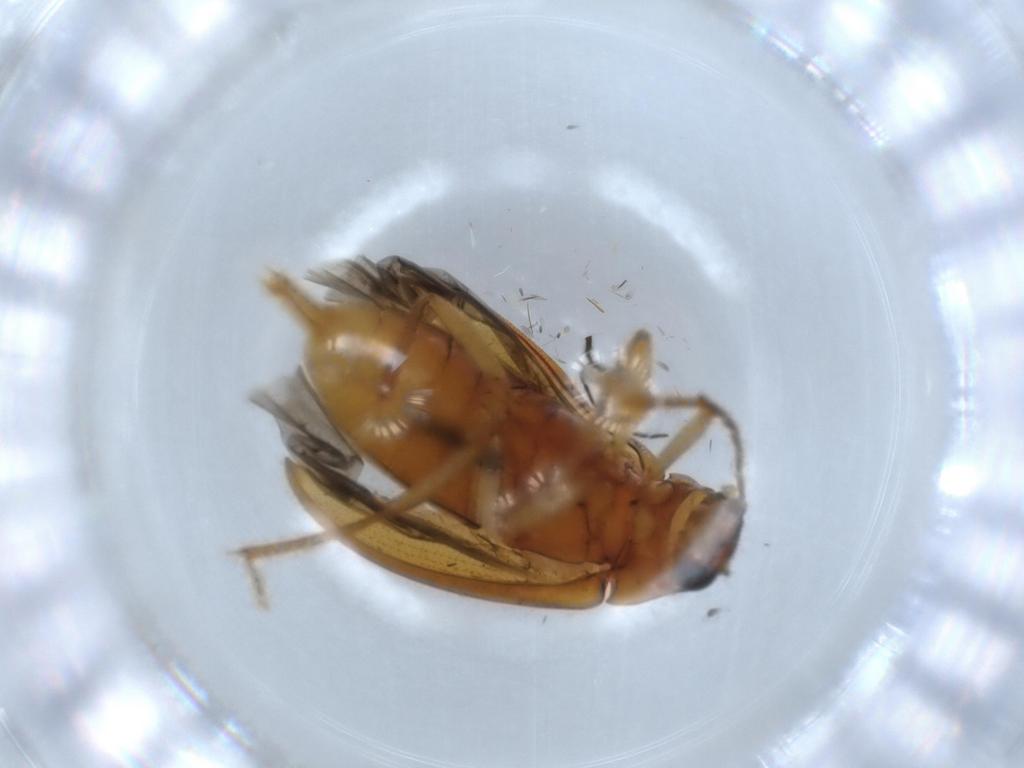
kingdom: Animalia
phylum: Arthropoda
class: Insecta
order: Coleoptera
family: Ptilodactylidae
